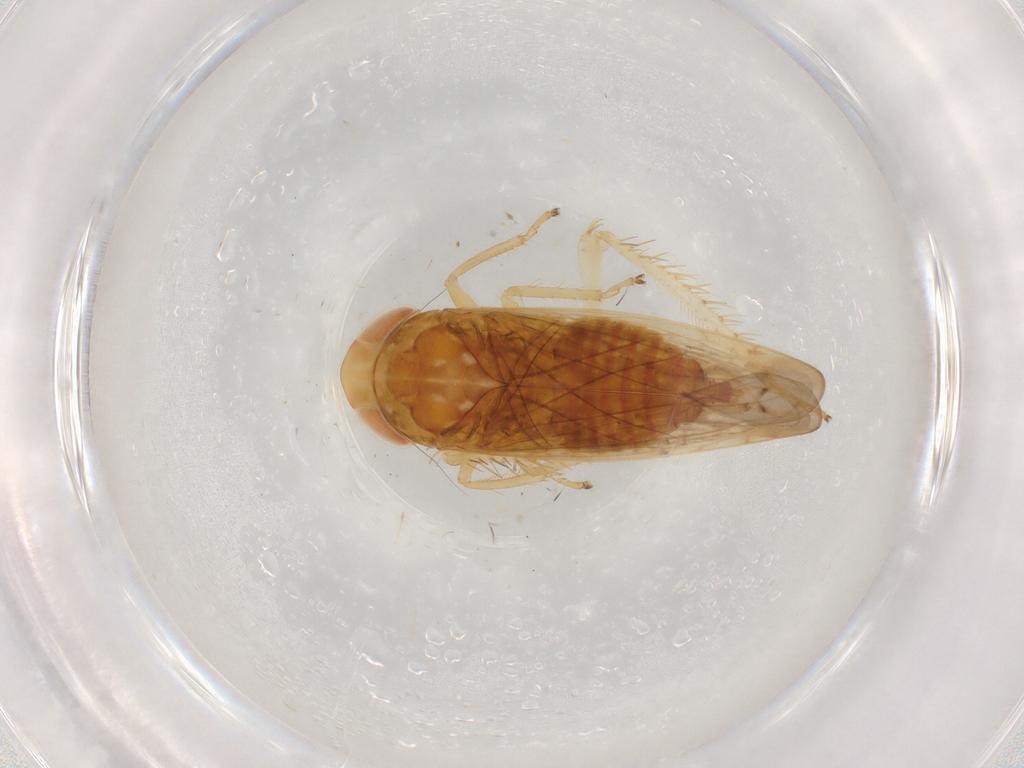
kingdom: Animalia
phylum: Arthropoda
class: Insecta
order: Hemiptera
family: Cicadellidae
